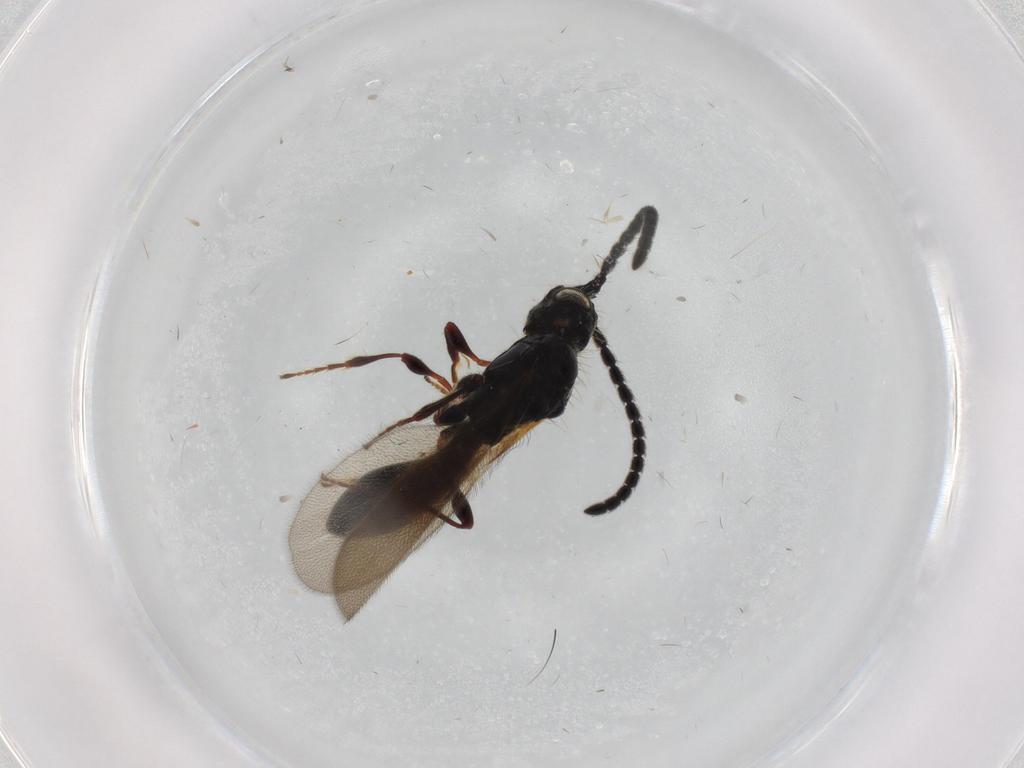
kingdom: Animalia
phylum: Arthropoda
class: Insecta
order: Hymenoptera
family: Diapriidae
